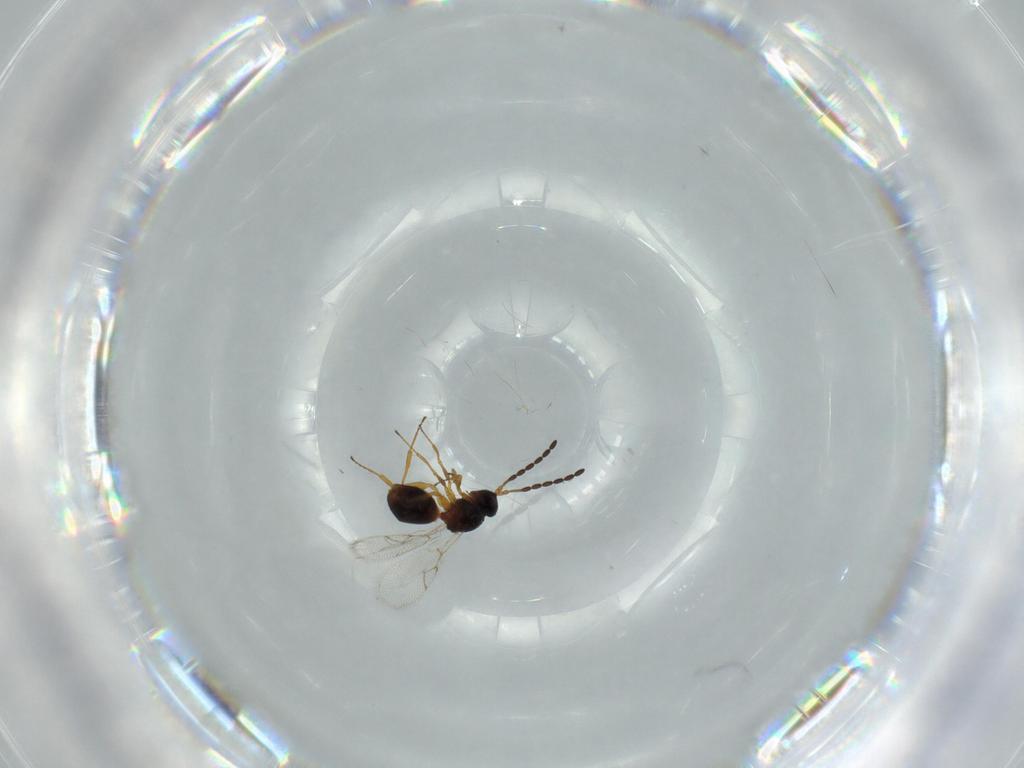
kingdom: Animalia
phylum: Arthropoda
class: Insecta
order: Hymenoptera
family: Figitidae
